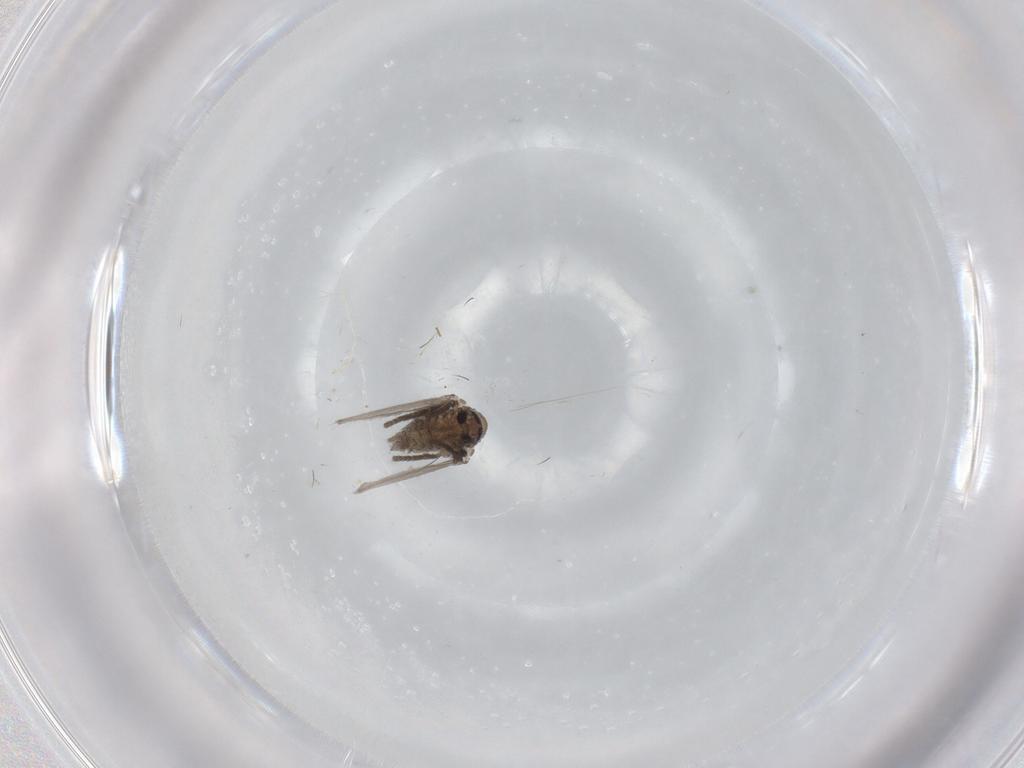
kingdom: Animalia
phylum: Arthropoda
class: Insecta
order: Diptera
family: Psychodidae
